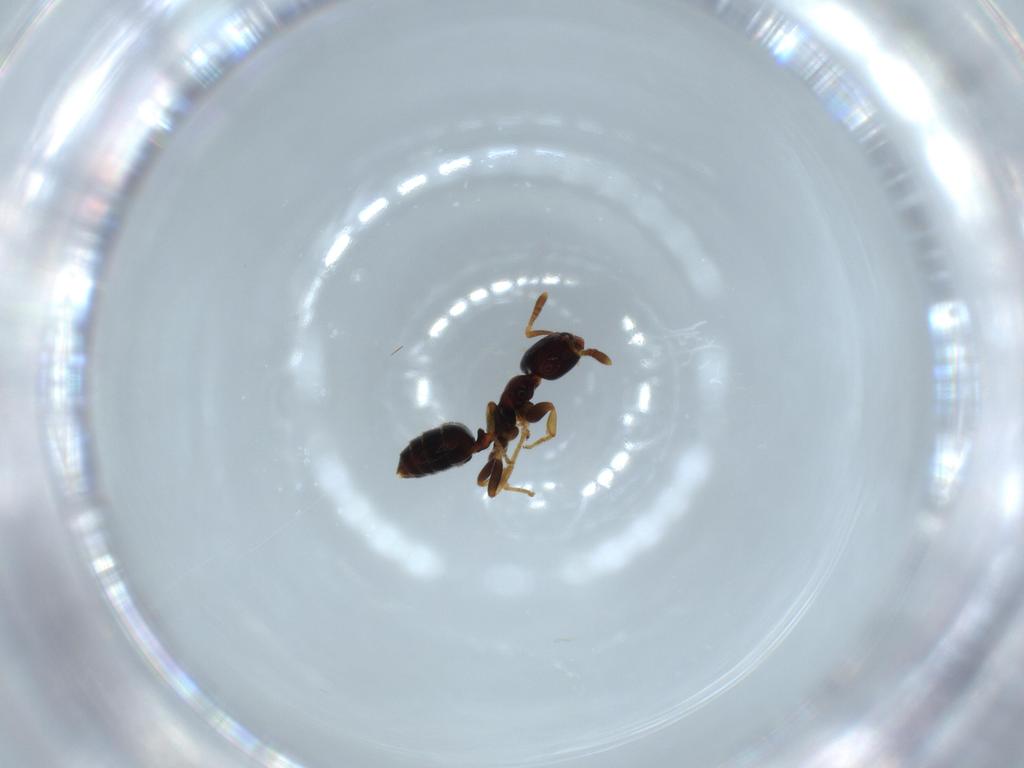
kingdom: Animalia
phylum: Arthropoda
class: Insecta
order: Hymenoptera
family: Formicidae
